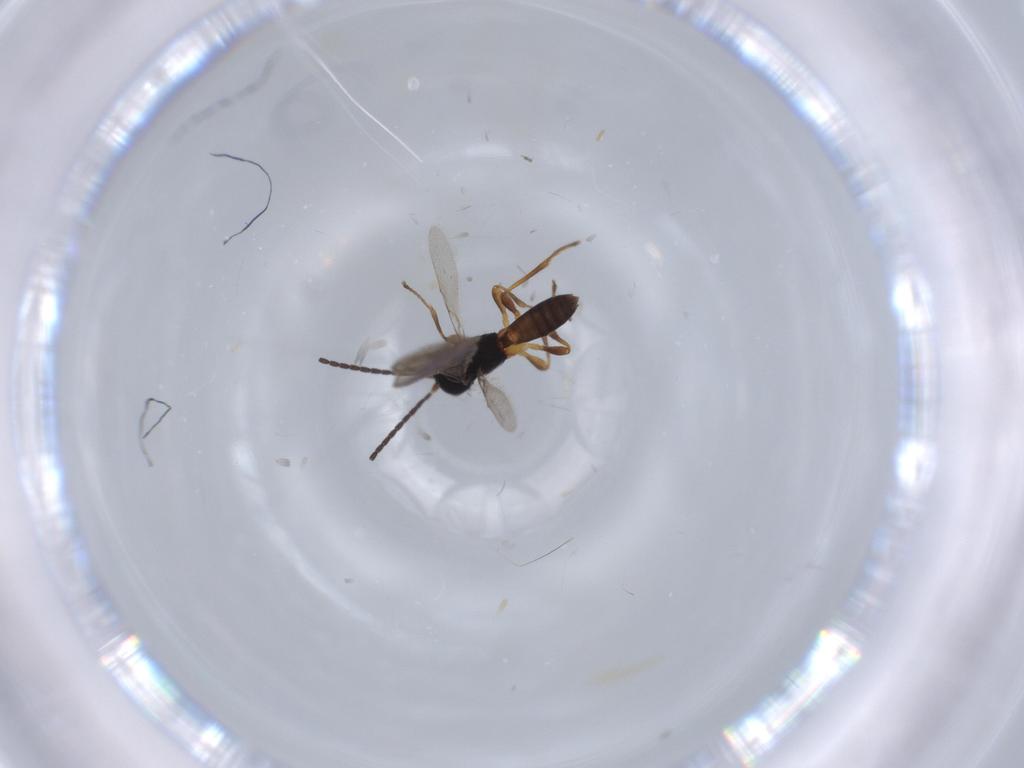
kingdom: Animalia
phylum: Arthropoda
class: Insecta
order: Hymenoptera
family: Braconidae
